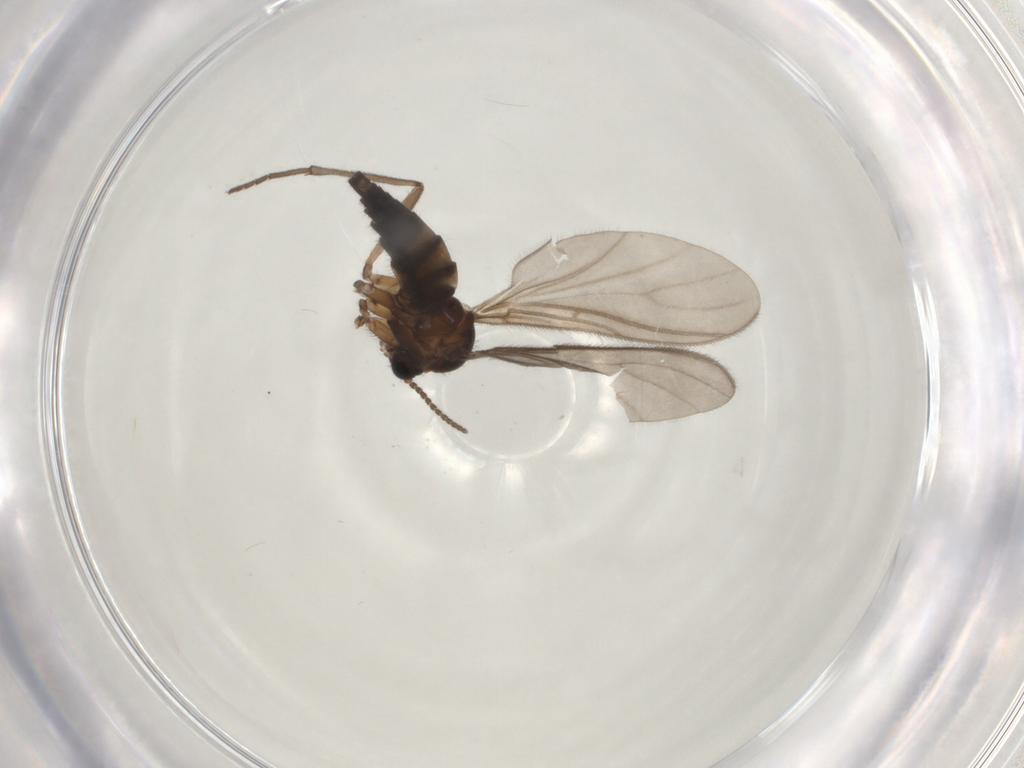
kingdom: Animalia
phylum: Arthropoda
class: Insecta
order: Diptera
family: Sciaridae
